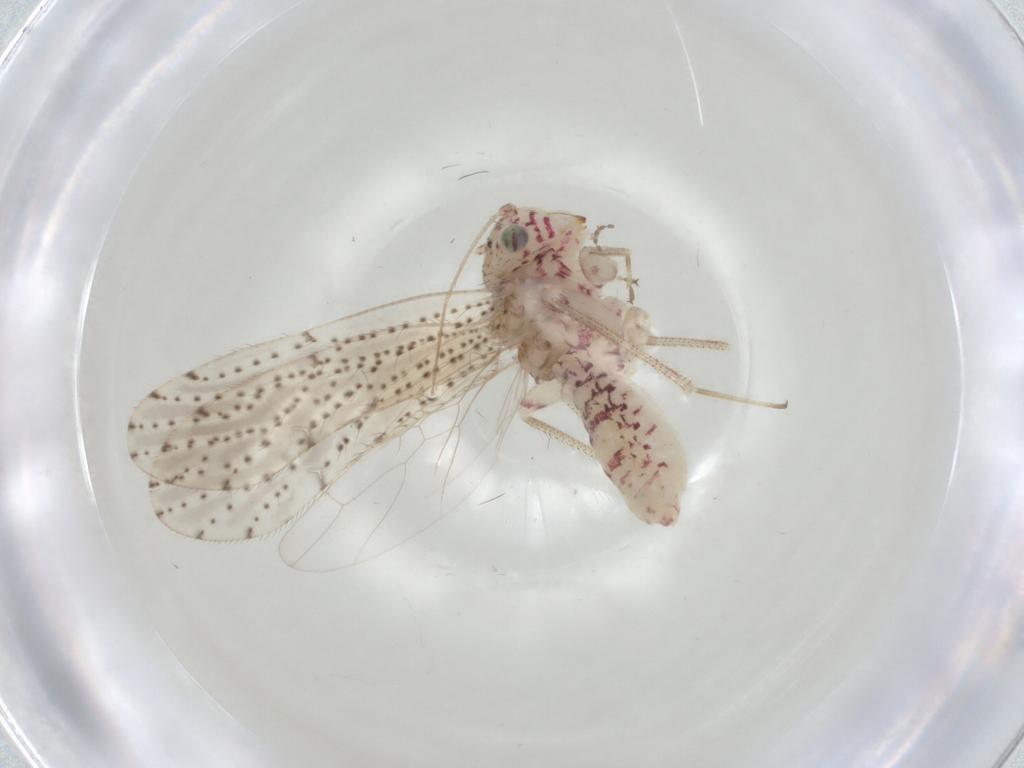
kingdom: Animalia
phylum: Arthropoda
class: Insecta
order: Psocodea
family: Philotarsidae
